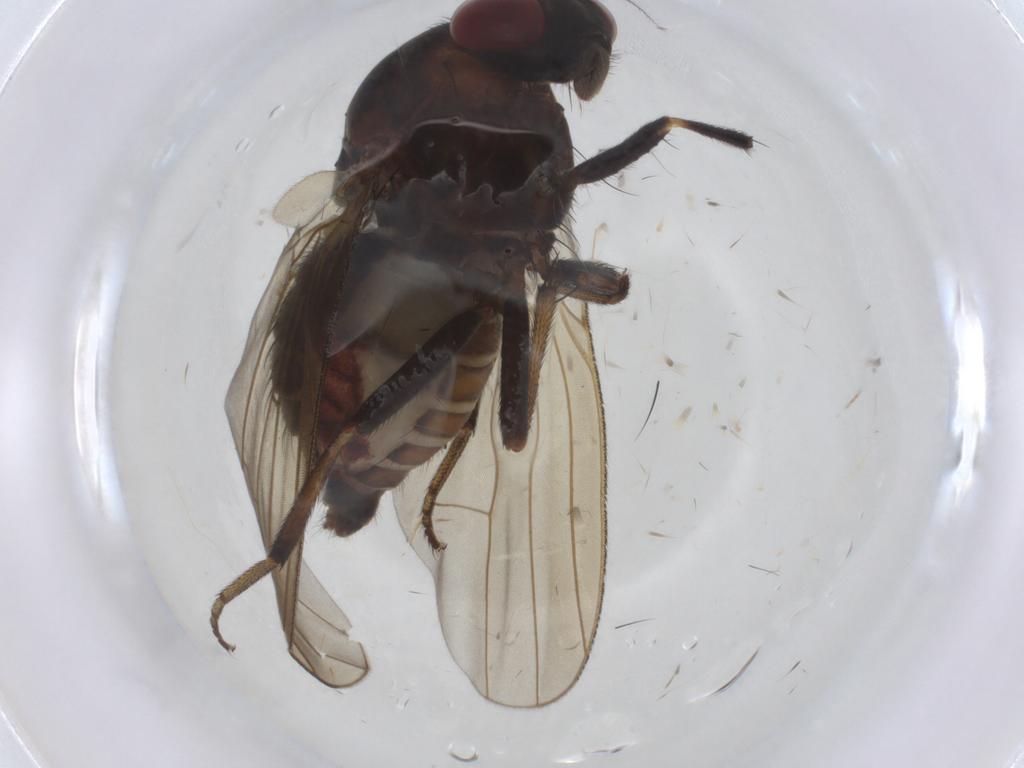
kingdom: Animalia
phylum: Arthropoda
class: Insecta
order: Diptera
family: Ceratopogonidae
